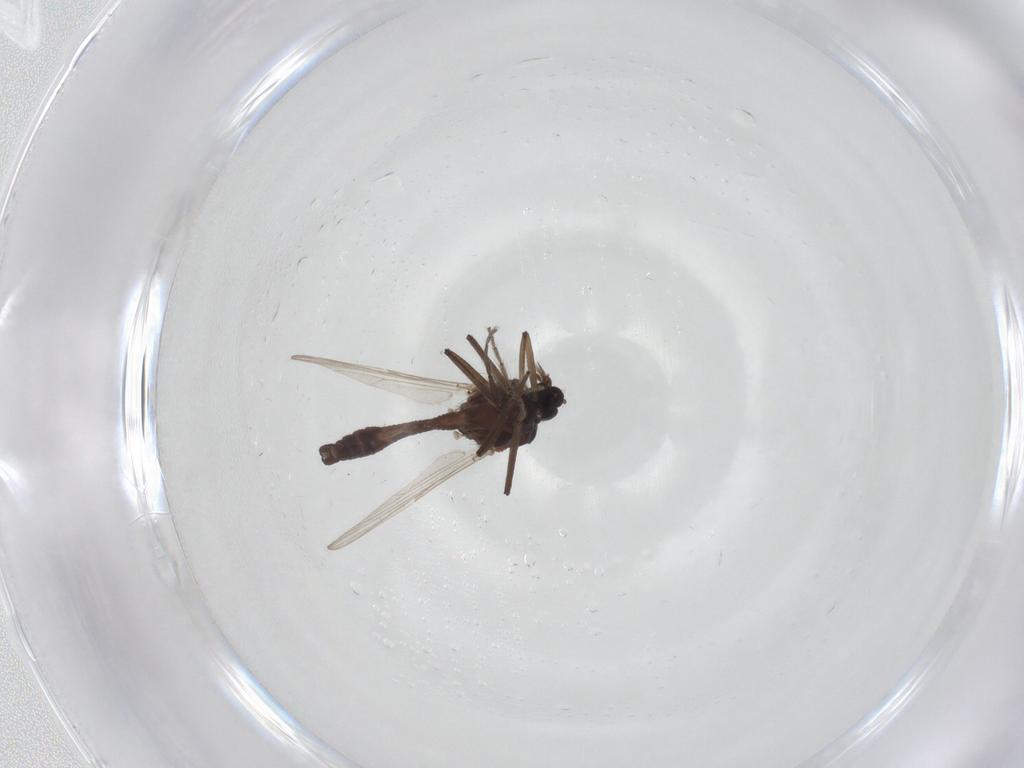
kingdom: Animalia
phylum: Arthropoda
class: Insecta
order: Diptera
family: Ceratopogonidae
